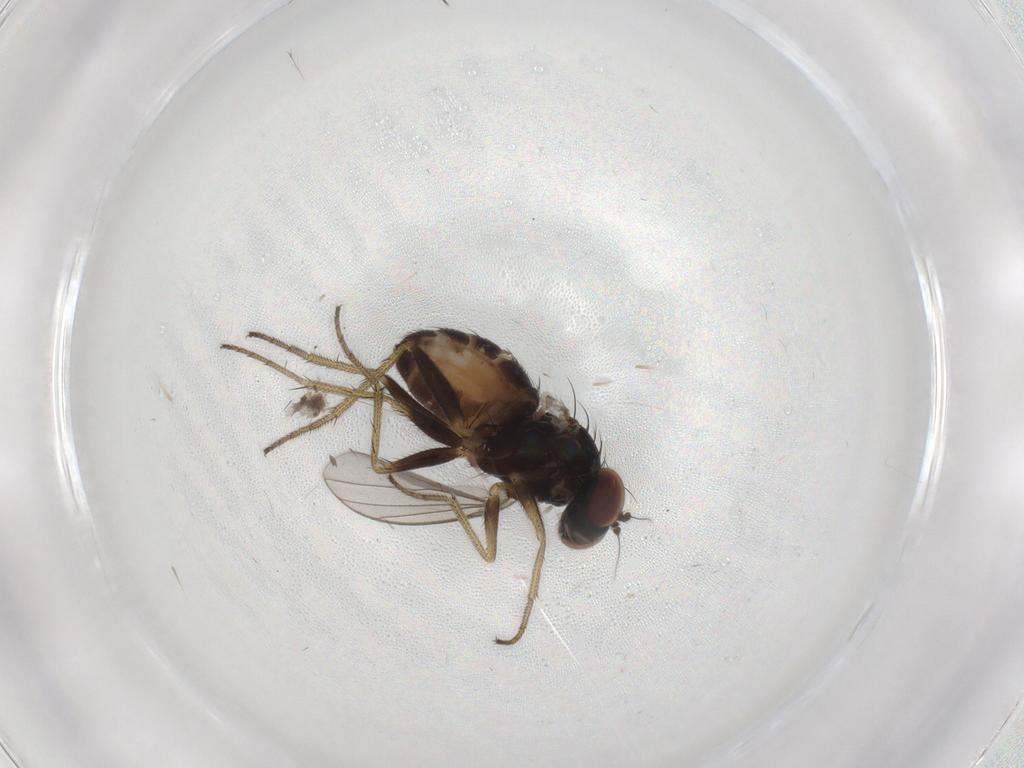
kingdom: Animalia
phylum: Arthropoda
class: Insecta
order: Diptera
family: Dolichopodidae
